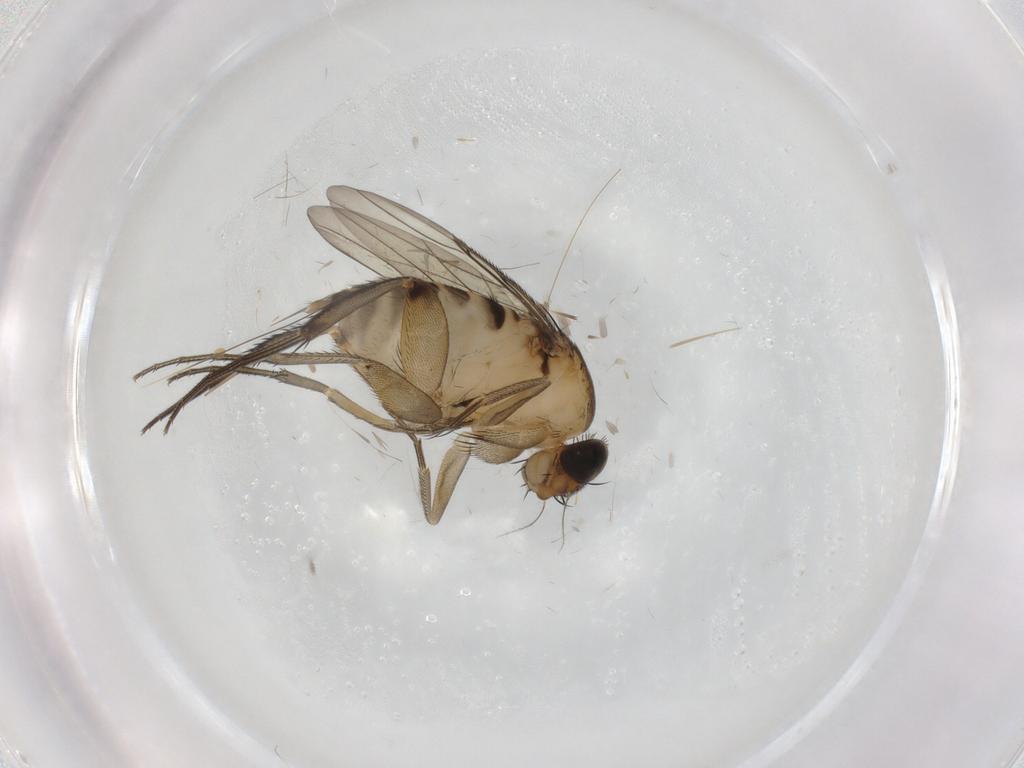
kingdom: Animalia
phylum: Arthropoda
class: Insecta
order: Diptera
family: Phoridae
